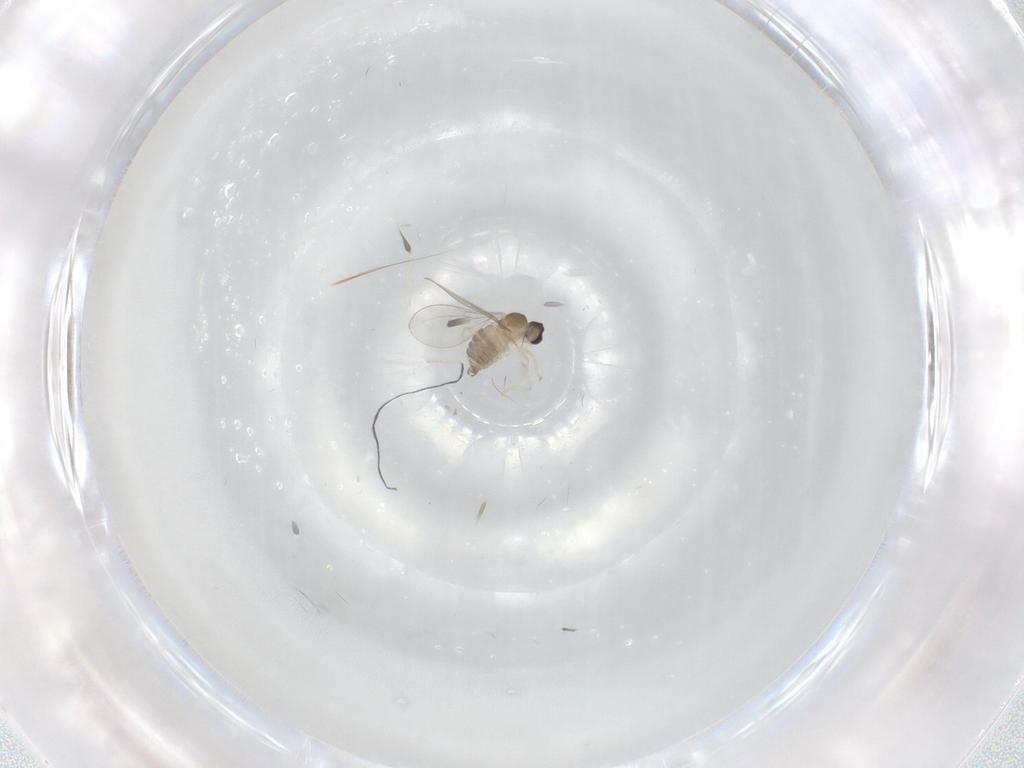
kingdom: Animalia
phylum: Arthropoda
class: Insecta
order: Diptera
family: Cecidomyiidae
